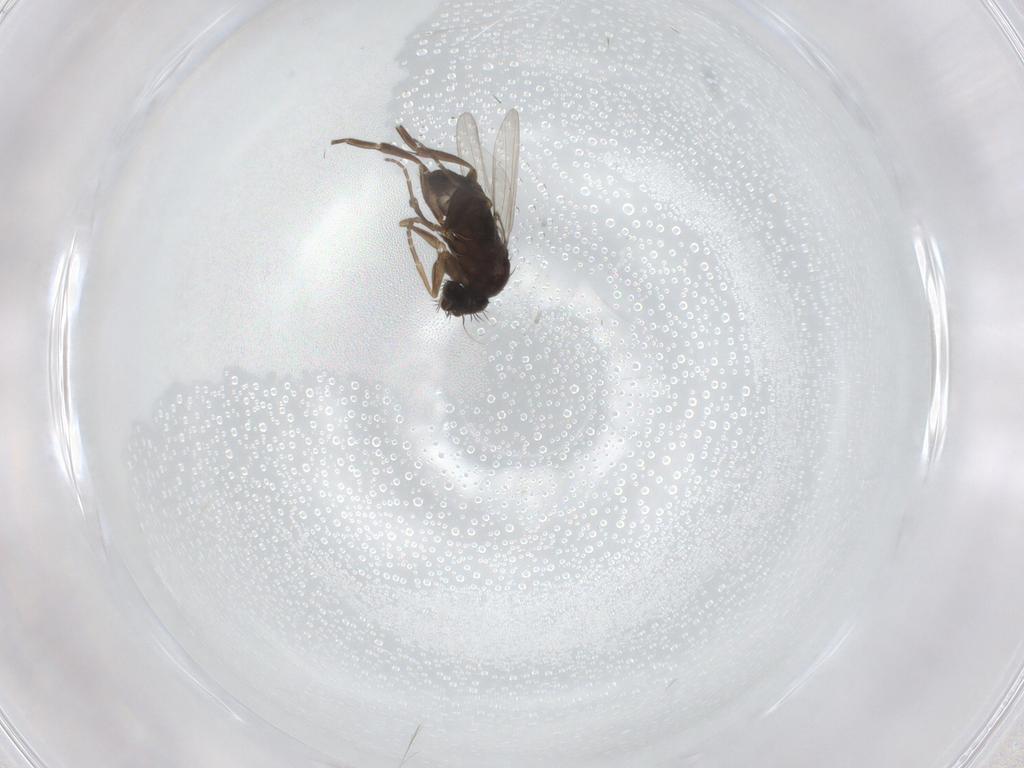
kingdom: Animalia
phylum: Arthropoda
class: Insecta
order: Diptera
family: Phoridae
